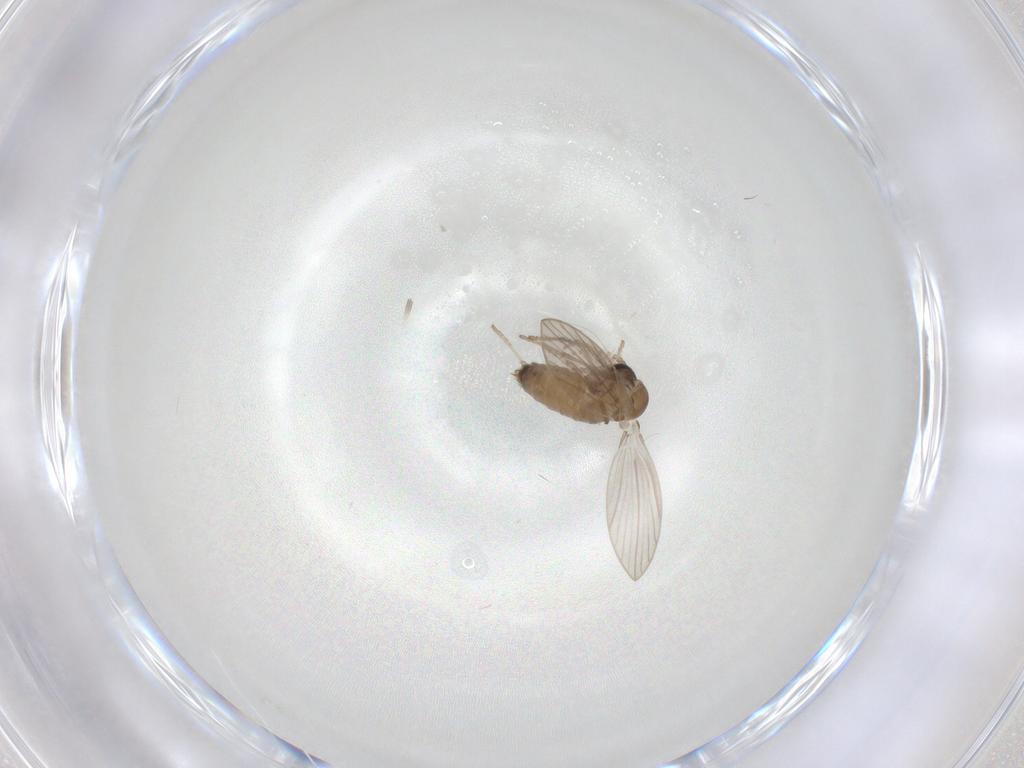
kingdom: Animalia
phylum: Arthropoda
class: Insecta
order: Diptera
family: Psychodidae
